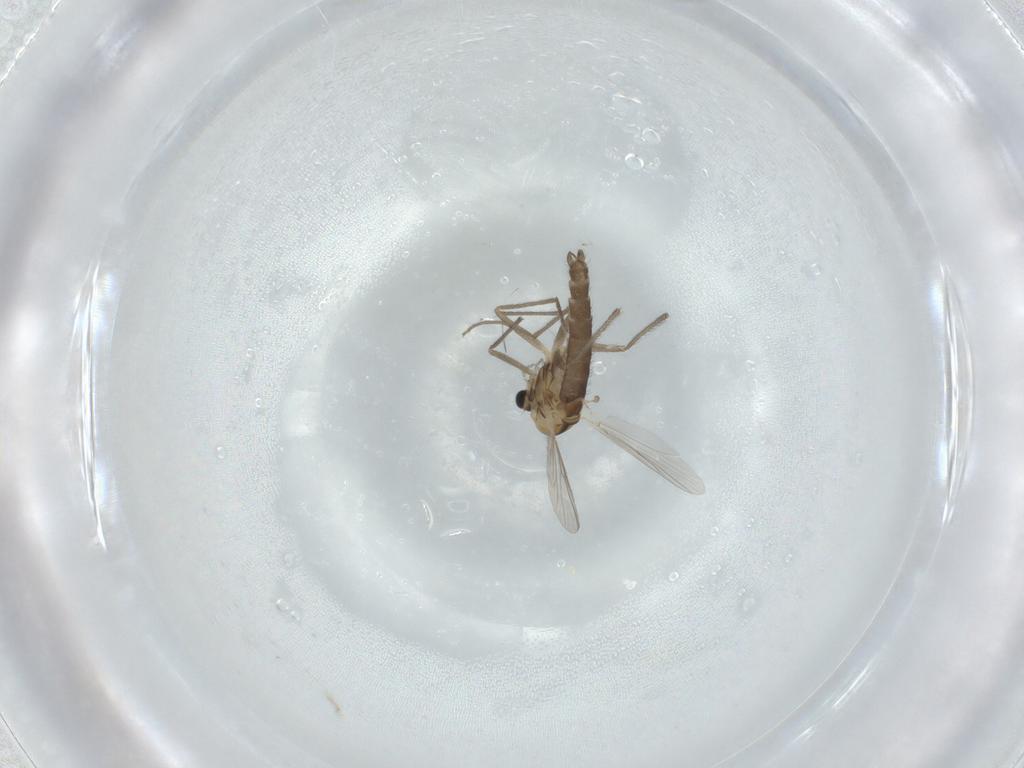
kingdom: Animalia
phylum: Arthropoda
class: Insecta
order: Diptera
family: Chironomidae
